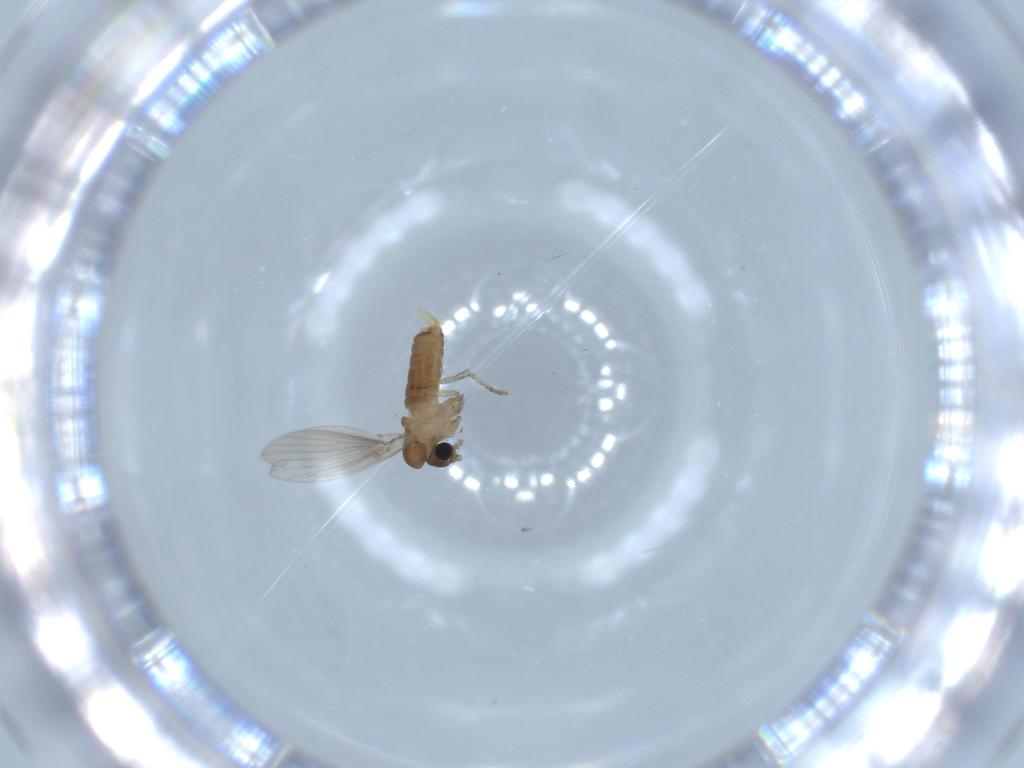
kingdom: Animalia
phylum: Arthropoda
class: Insecta
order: Diptera
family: Psychodidae
